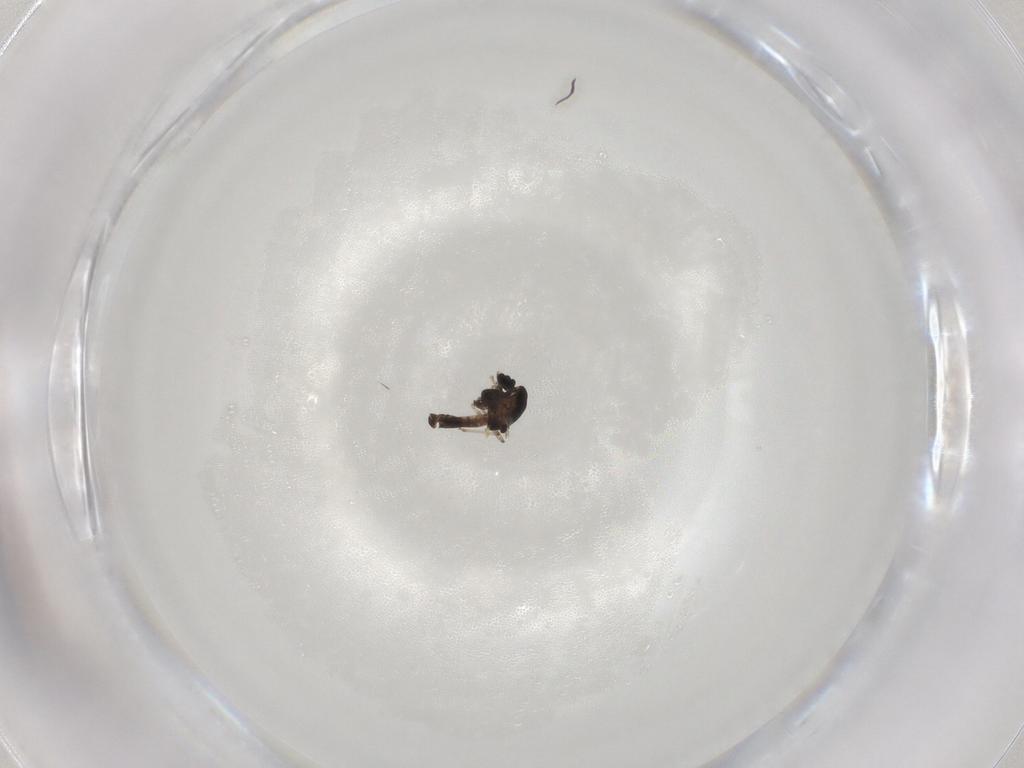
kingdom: Animalia
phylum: Arthropoda
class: Insecta
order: Diptera
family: Chironomidae
